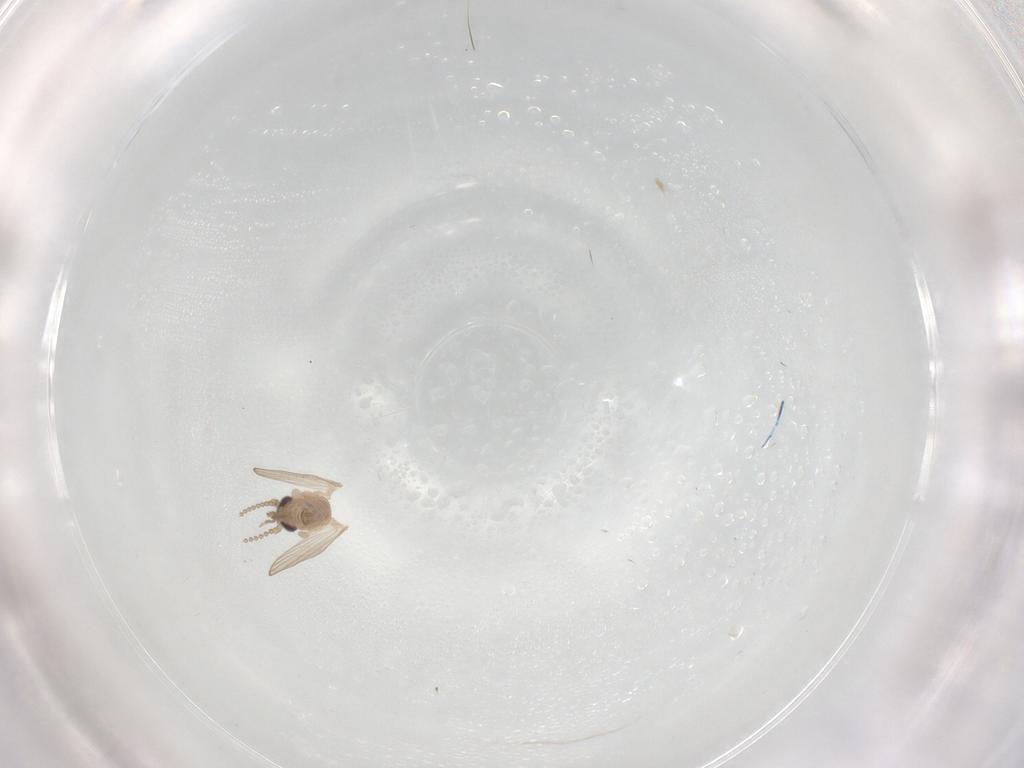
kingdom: Animalia
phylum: Arthropoda
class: Insecta
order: Diptera
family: Psychodidae
